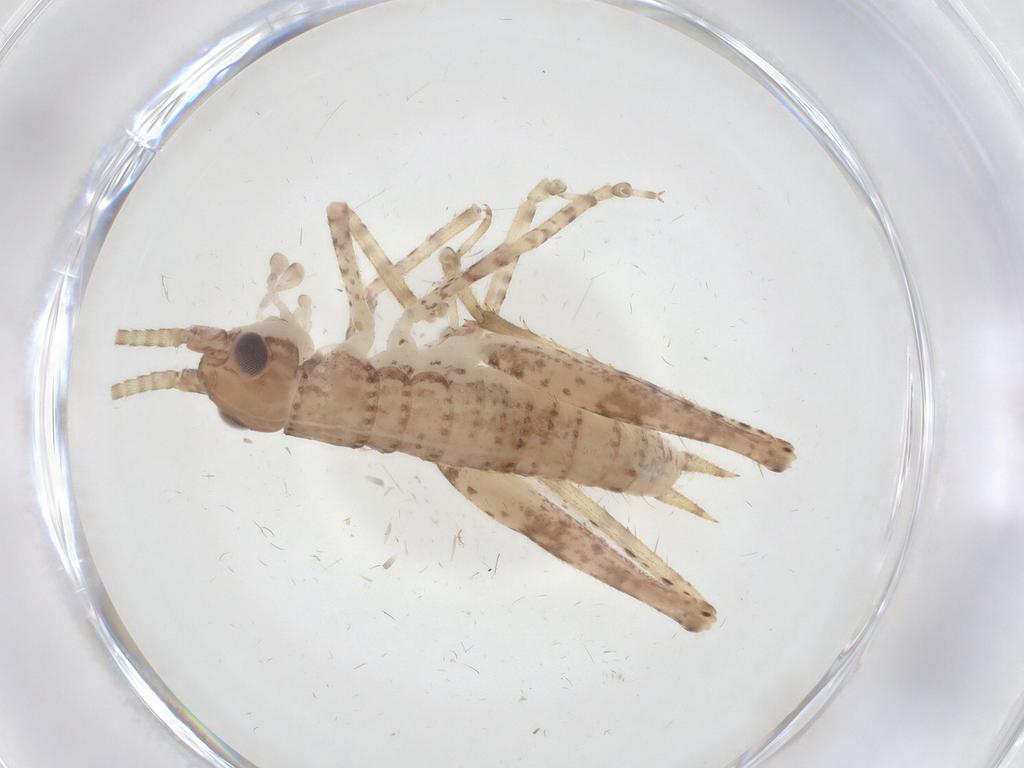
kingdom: Animalia
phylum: Arthropoda
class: Insecta
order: Orthoptera
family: Gryllidae
